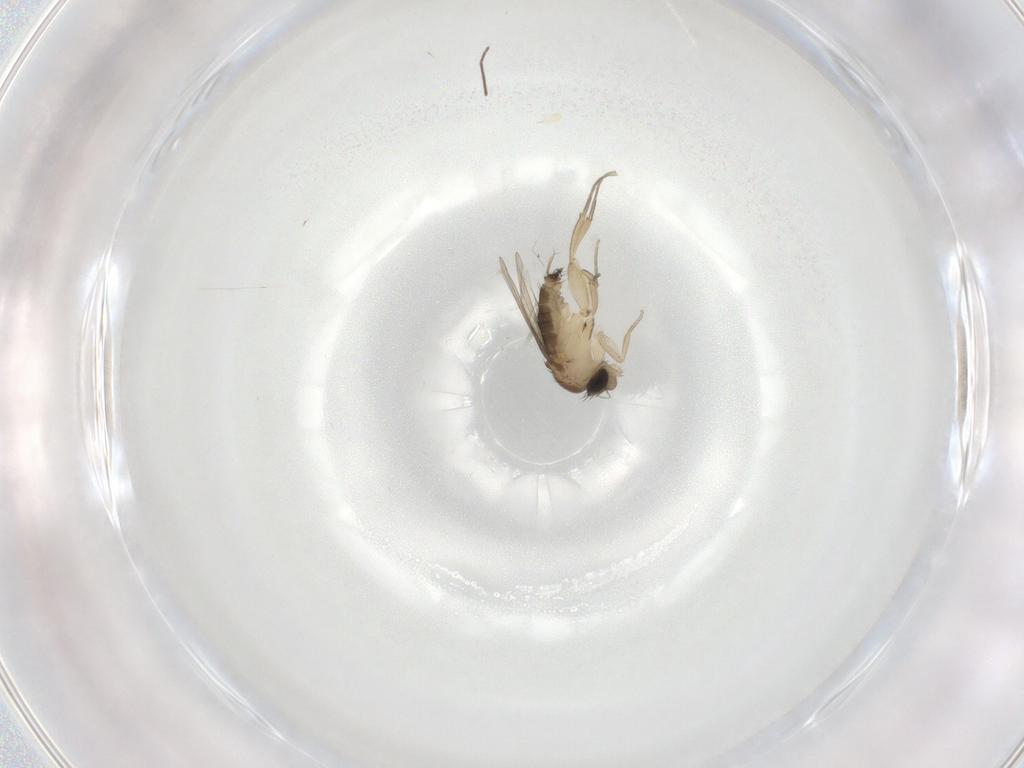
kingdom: Animalia
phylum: Arthropoda
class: Insecta
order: Diptera
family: Phoridae
